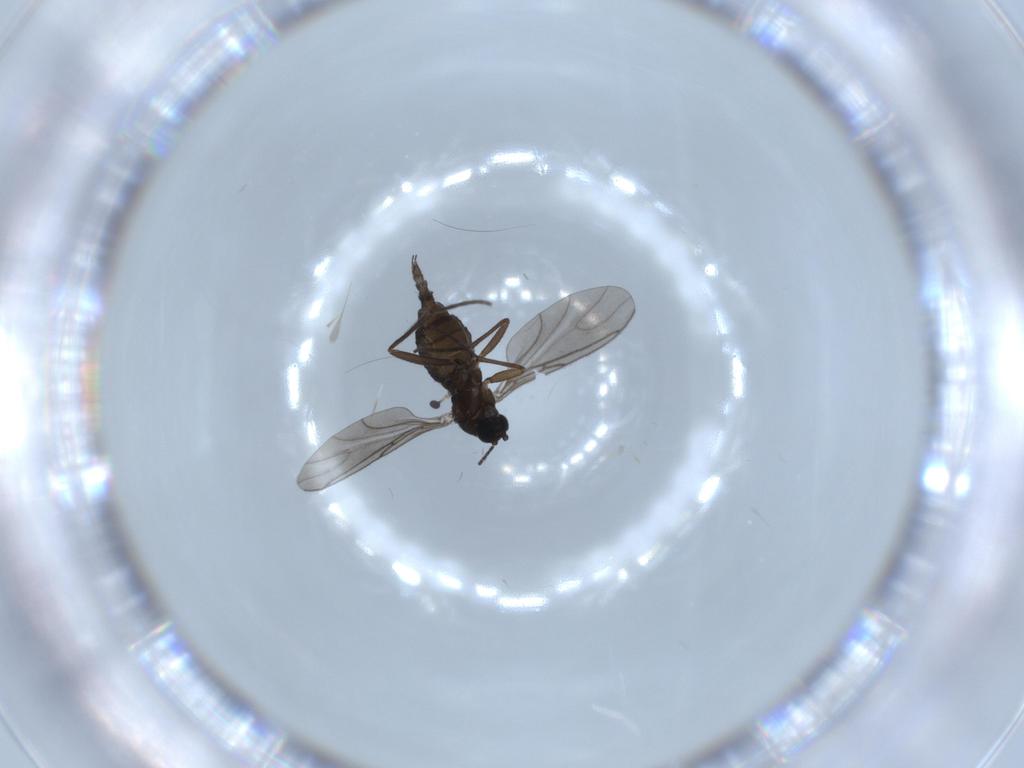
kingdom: Animalia
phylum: Arthropoda
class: Insecta
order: Diptera
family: Sciaridae
